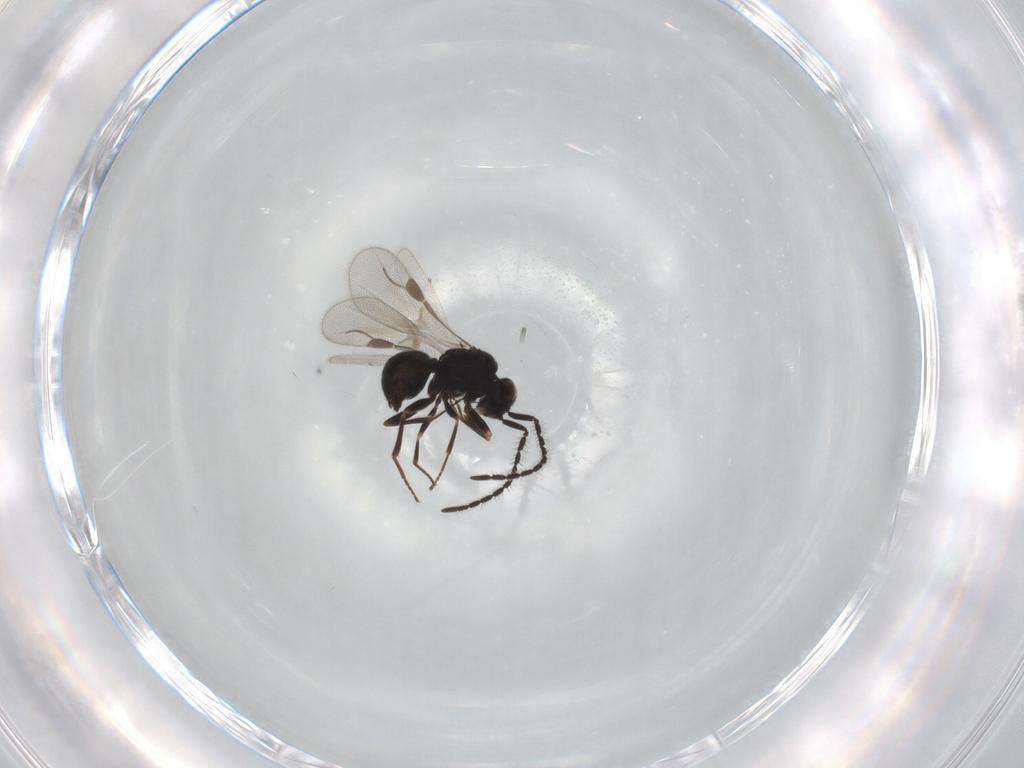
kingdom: Animalia
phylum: Arthropoda
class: Insecta
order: Hymenoptera
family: Megaspilidae
